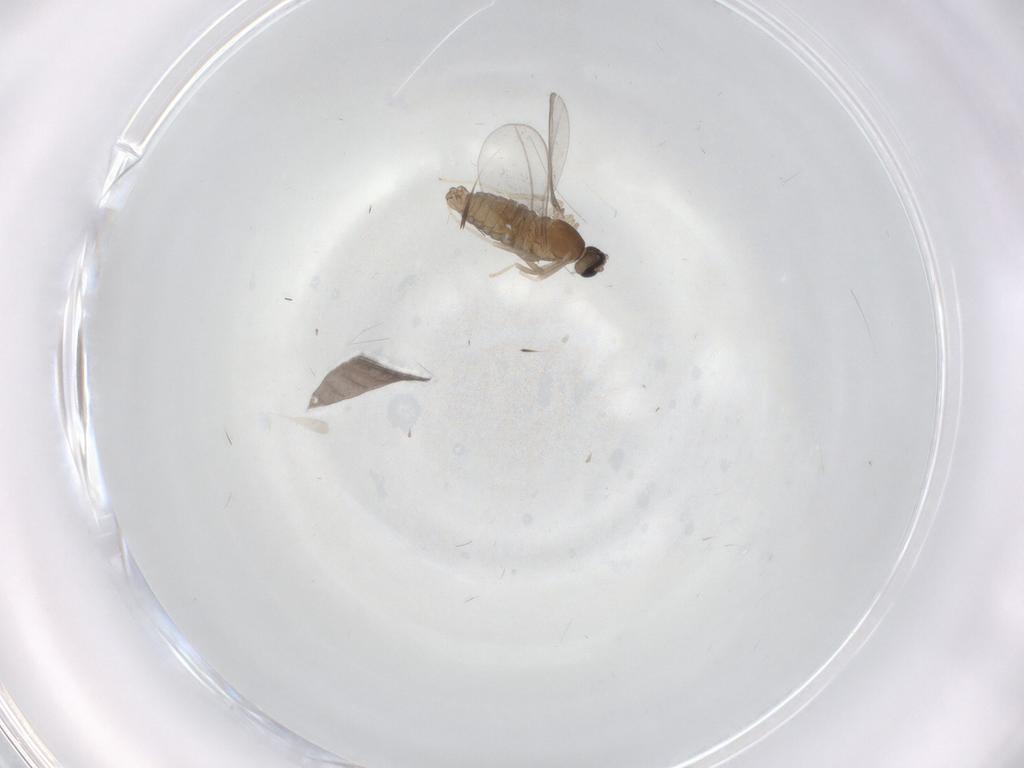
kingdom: Animalia
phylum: Arthropoda
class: Insecta
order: Diptera
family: Cecidomyiidae
